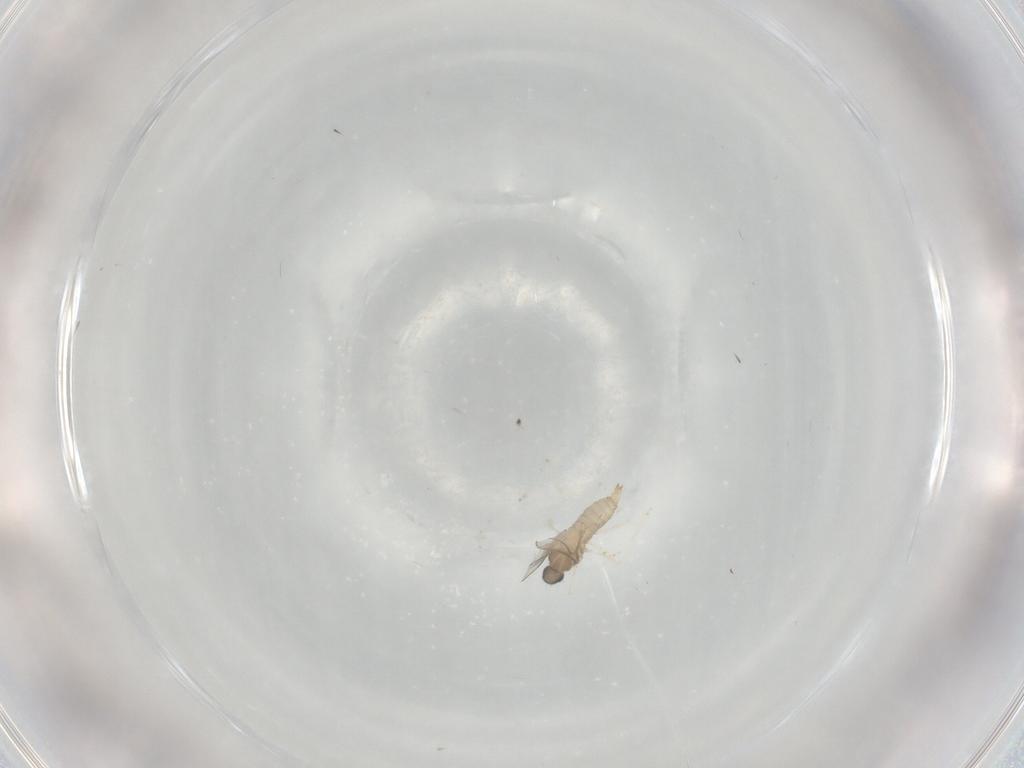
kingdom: Animalia
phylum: Arthropoda
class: Insecta
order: Diptera
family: Cecidomyiidae
